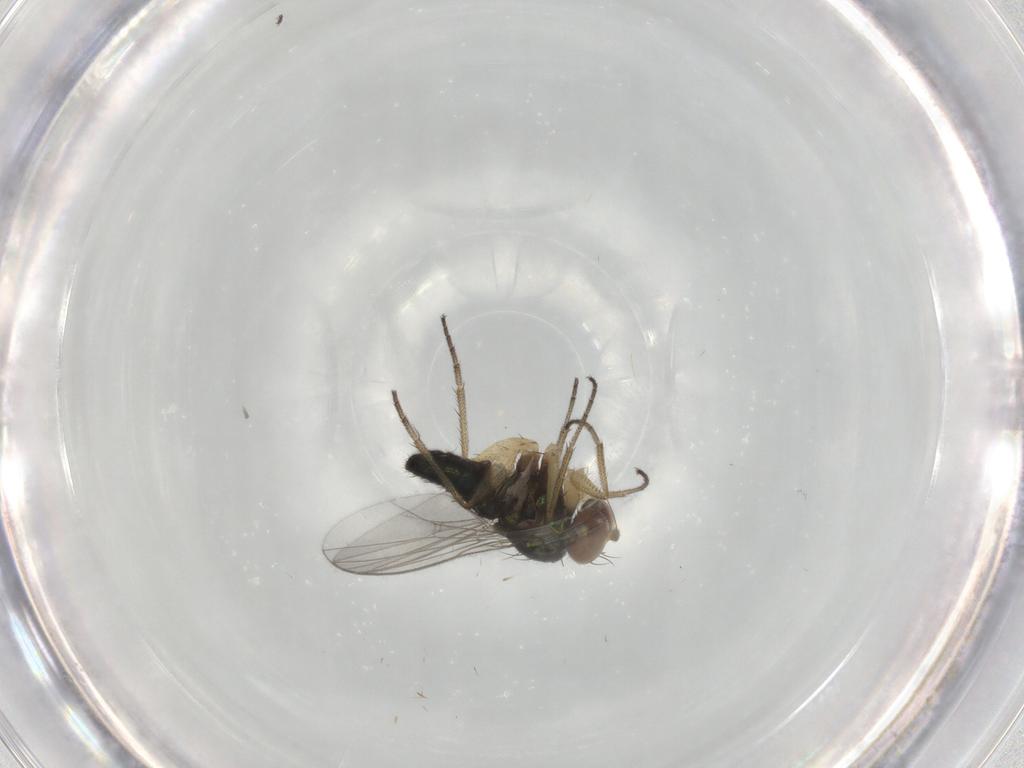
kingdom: Animalia
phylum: Arthropoda
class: Insecta
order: Diptera
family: Dolichopodidae
